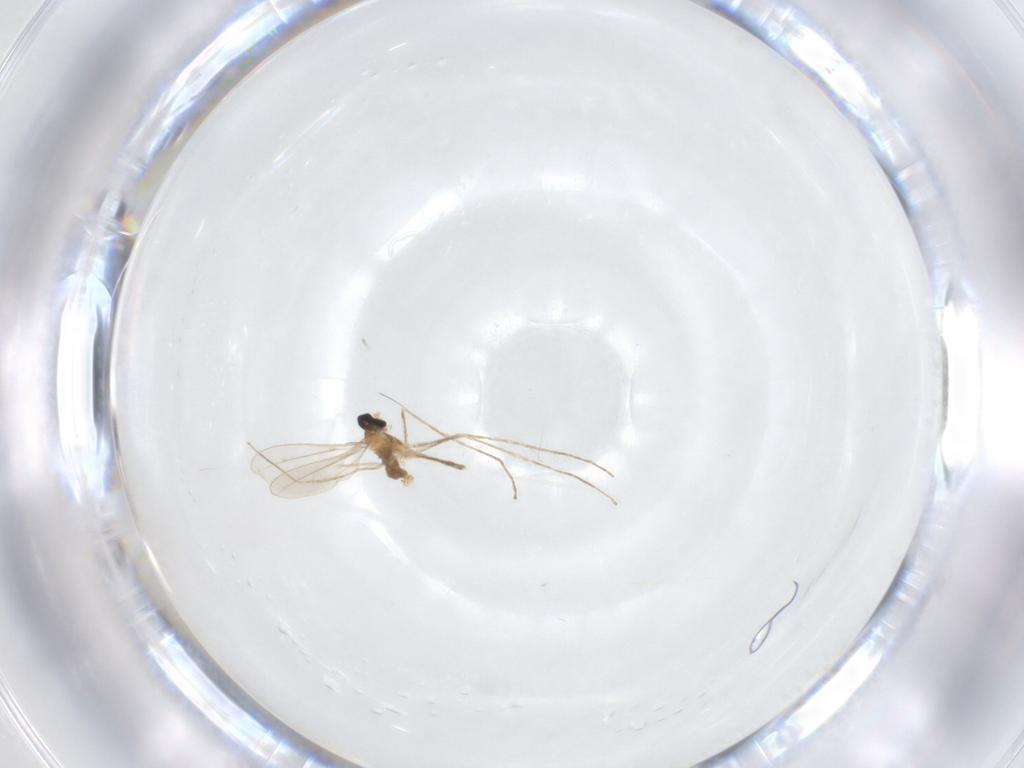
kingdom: Animalia
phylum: Arthropoda
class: Insecta
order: Diptera
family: Cecidomyiidae
